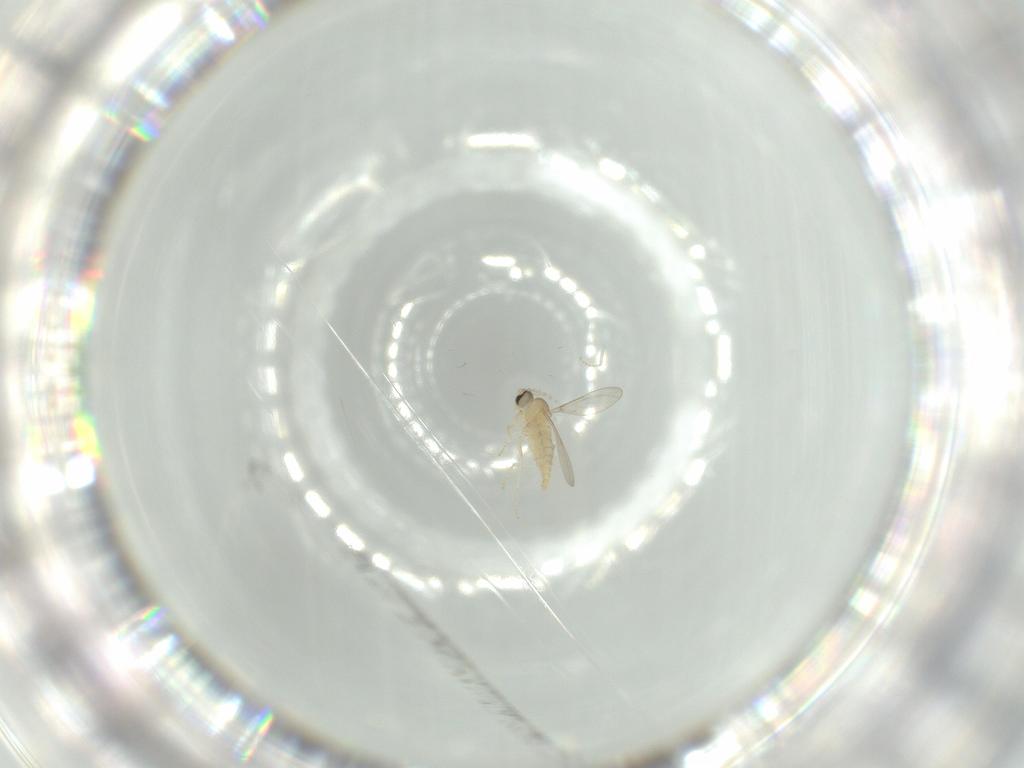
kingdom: Animalia
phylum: Arthropoda
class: Insecta
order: Diptera
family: Cecidomyiidae
